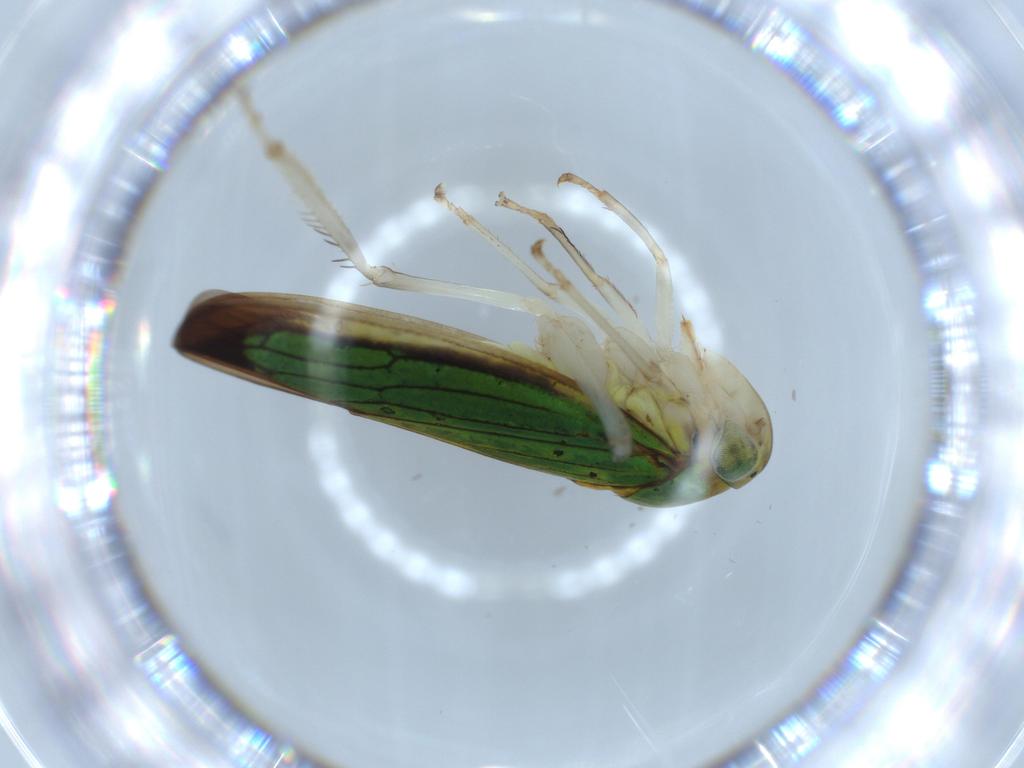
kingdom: Animalia
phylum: Arthropoda
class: Insecta
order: Hemiptera
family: Cicadellidae
